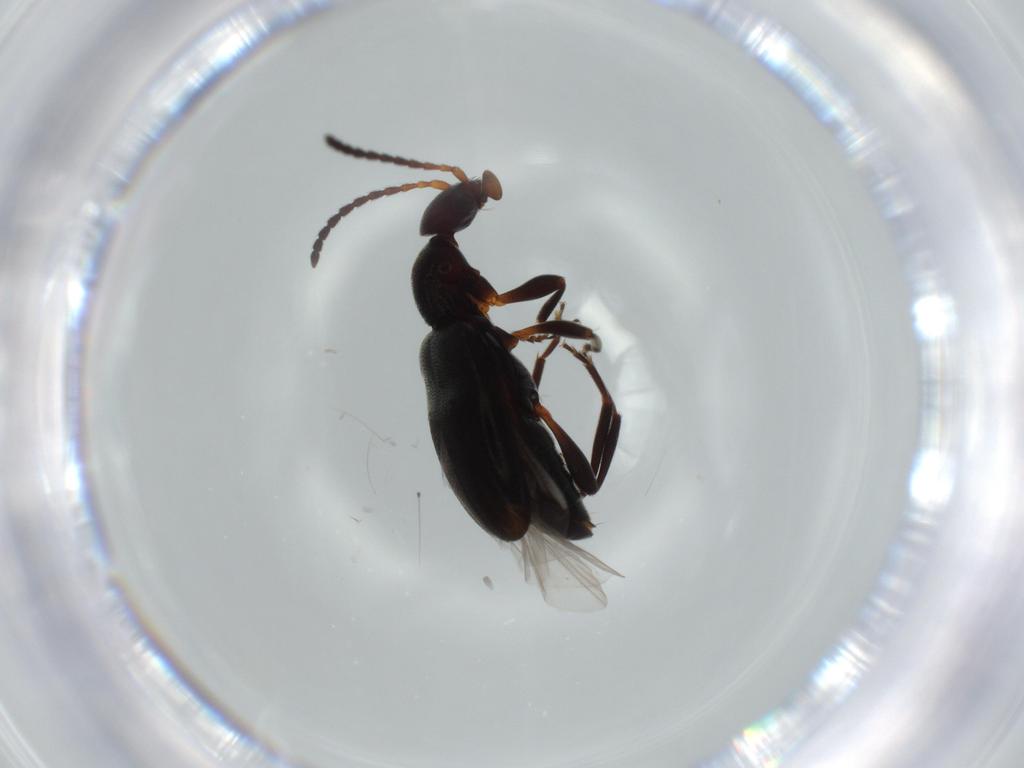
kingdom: Animalia
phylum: Arthropoda
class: Insecta
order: Coleoptera
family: Anthicidae
